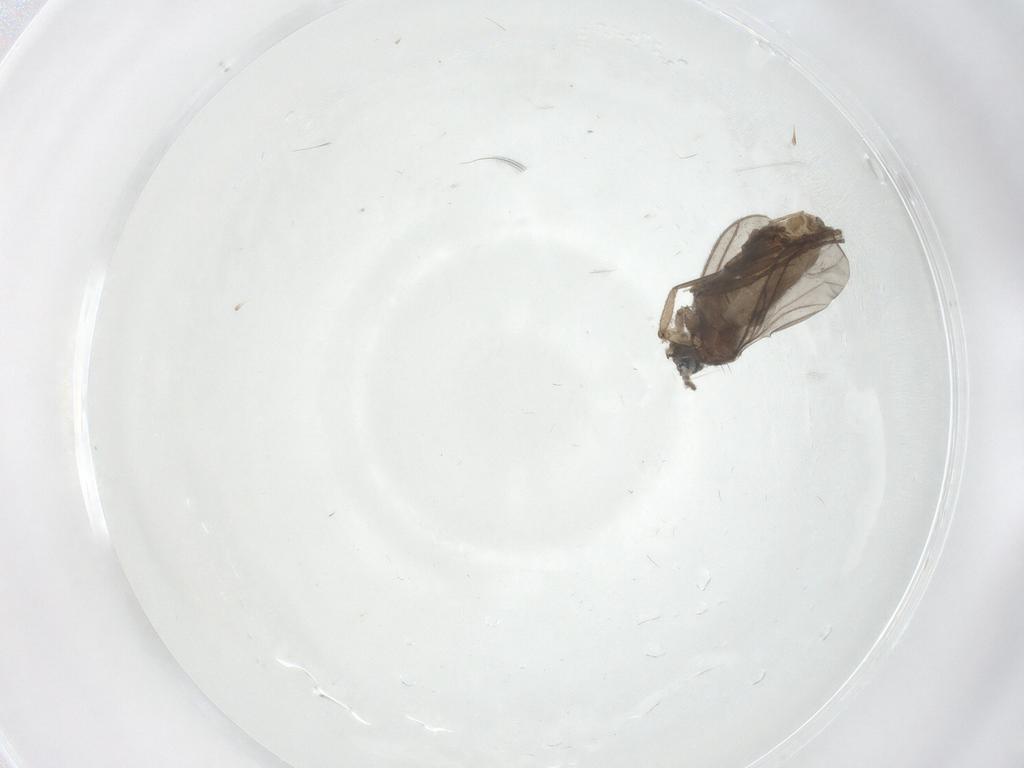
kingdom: Animalia
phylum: Arthropoda
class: Insecta
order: Diptera
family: Sciaridae
